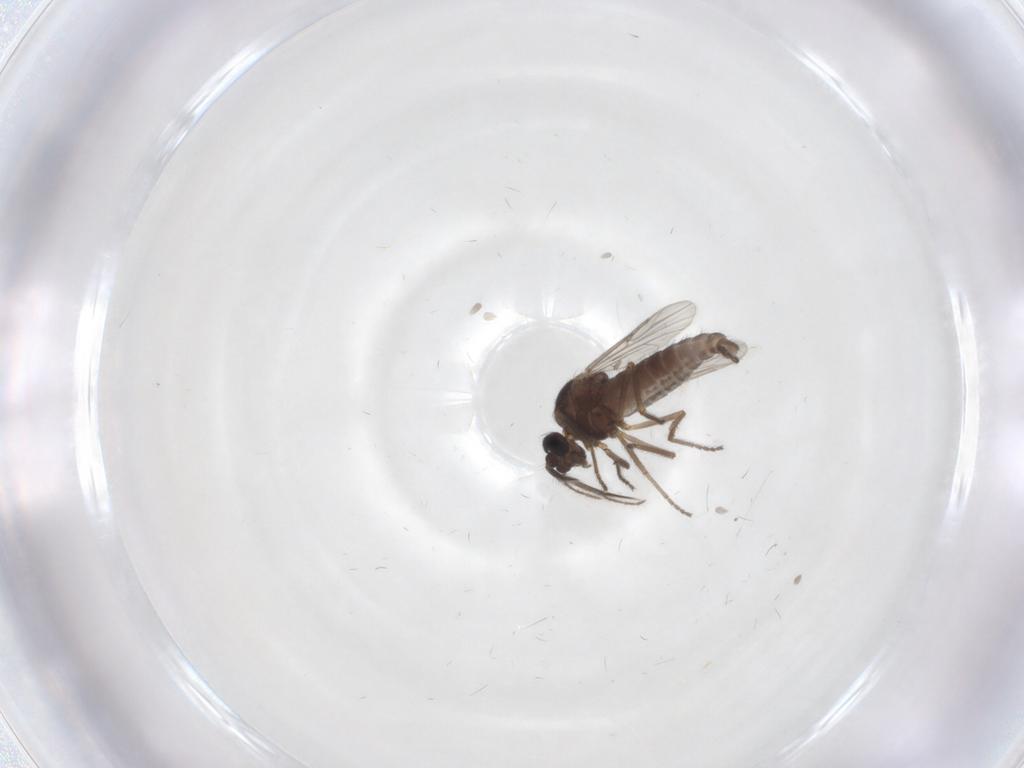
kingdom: Animalia
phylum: Arthropoda
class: Insecta
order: Diptera
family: Ceratopogonidae
